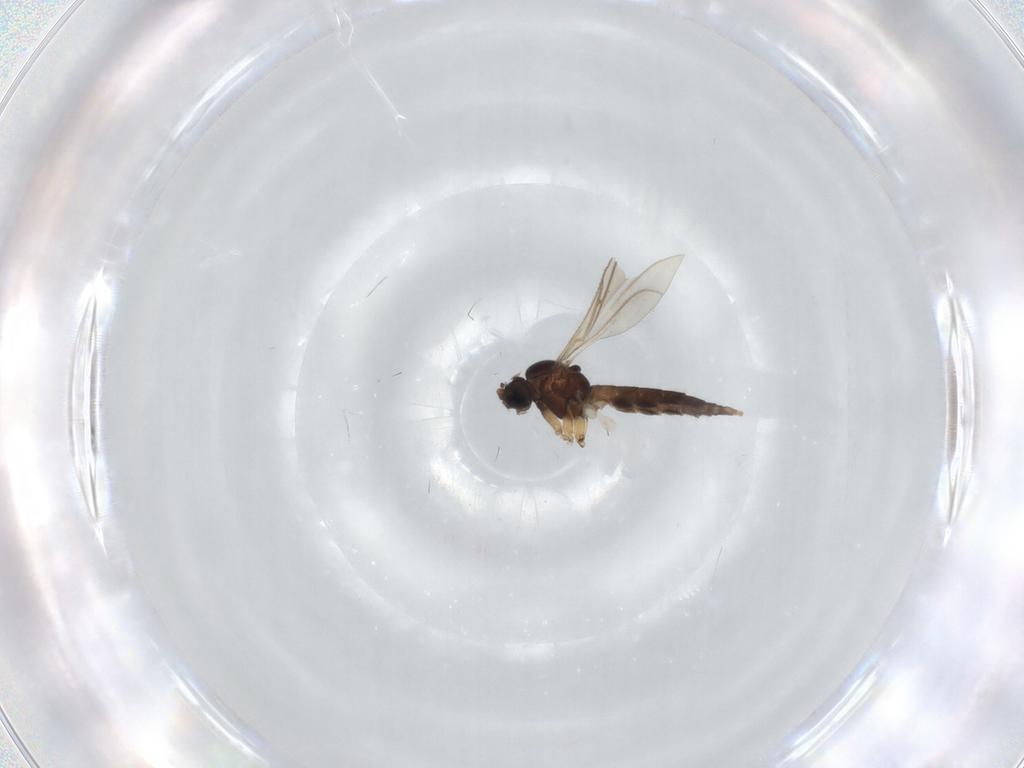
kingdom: Animalia
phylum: Arthropoda
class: Insecta
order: Diptera
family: Sciaridae
